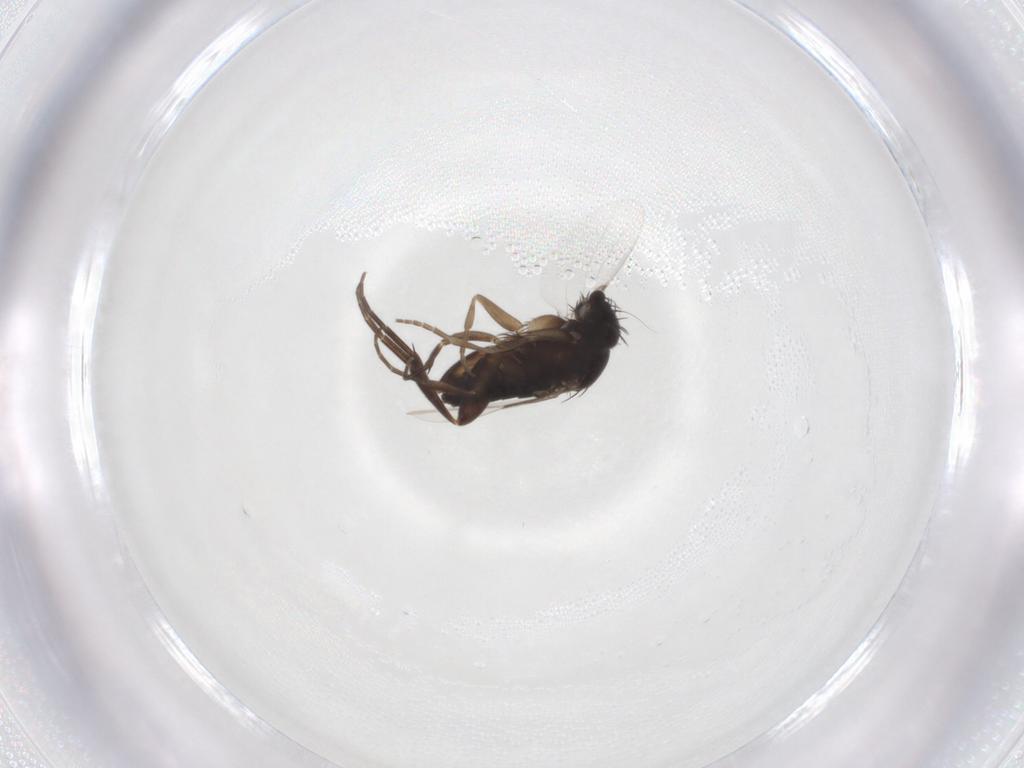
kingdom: Animalia
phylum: Arthropoda
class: Insecta
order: Diptera
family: Phoridae
